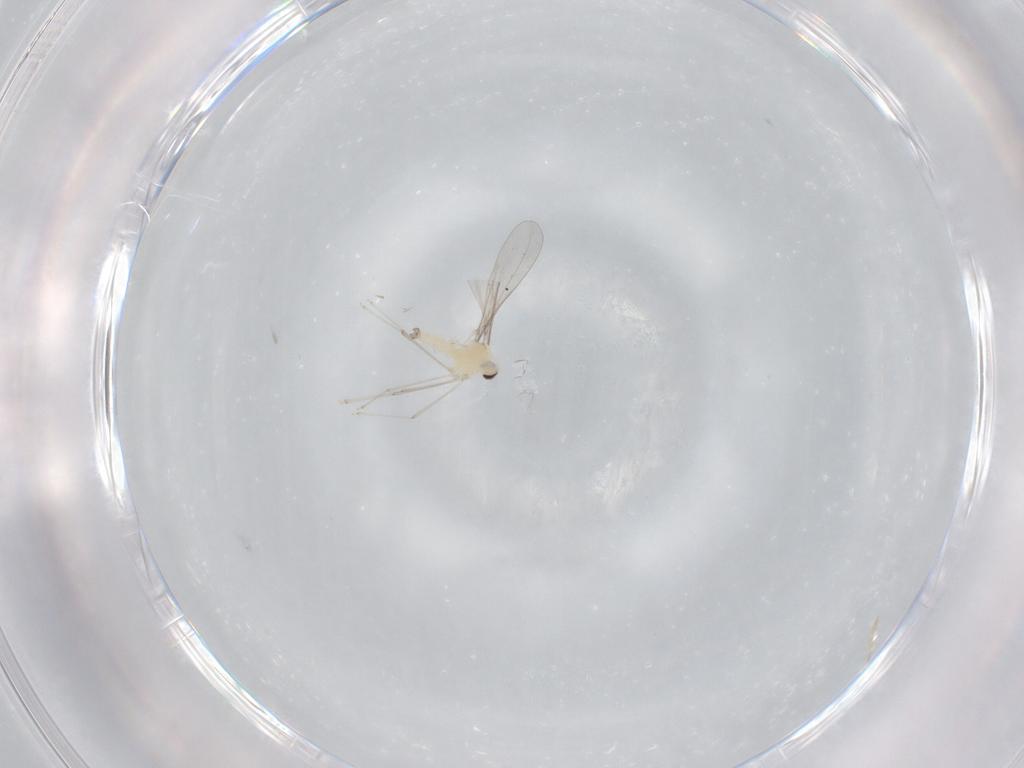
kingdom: Animalia
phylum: Arthropoda
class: Insecta
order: Diptera
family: Cecidomyiidae
